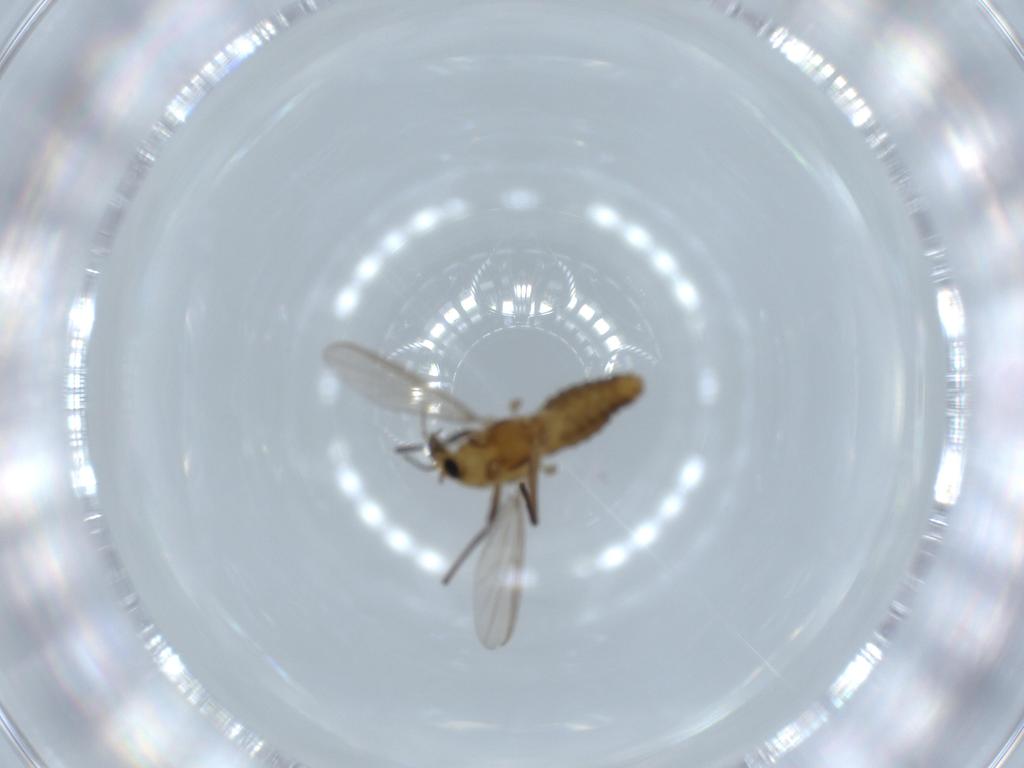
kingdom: Animalia
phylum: Arthropoda
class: Insecta
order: Diptera
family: Chironomidae
